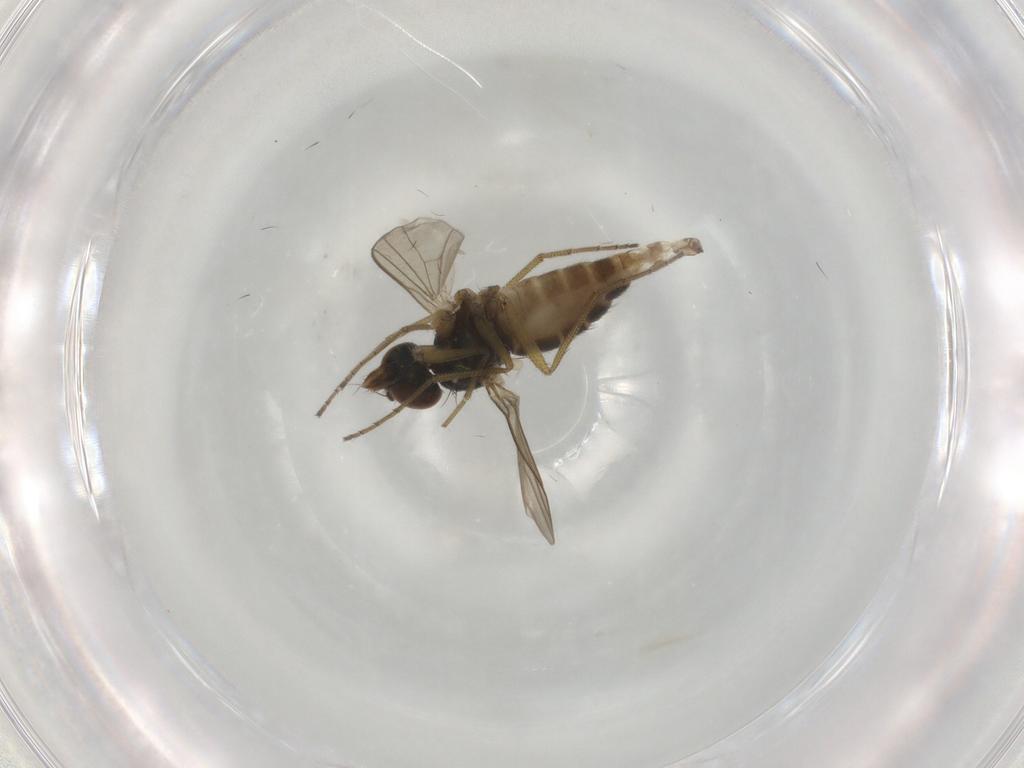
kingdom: Animalia
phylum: Arthropoda
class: Insecta
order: Diptera
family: Dolichopodidae
